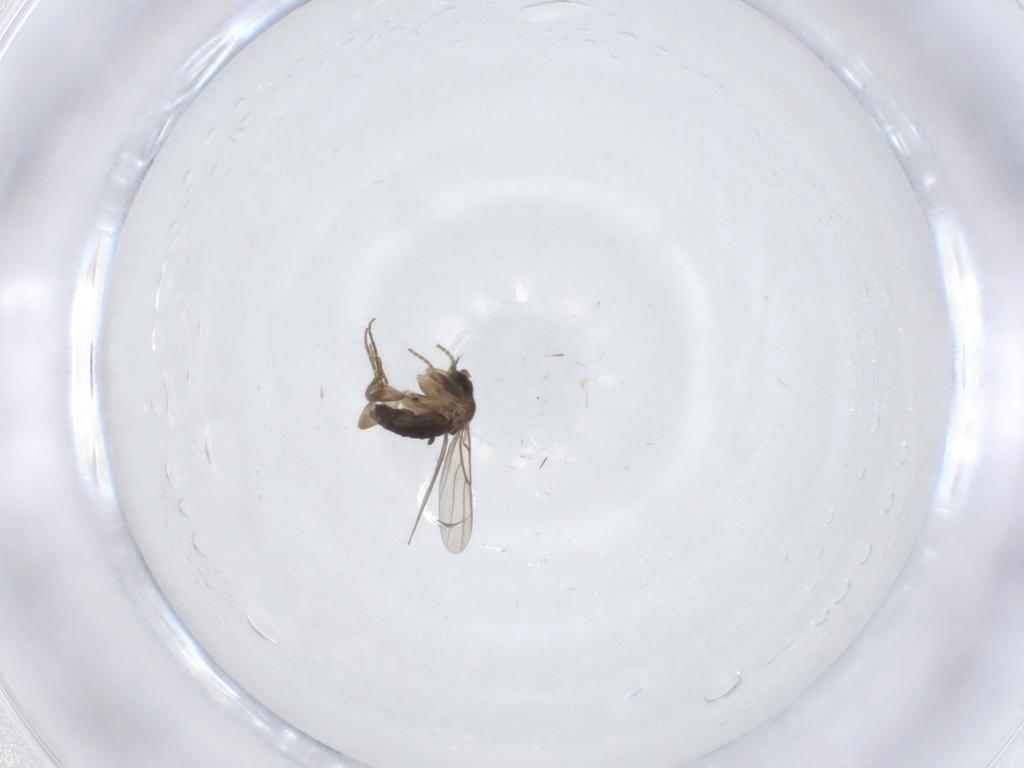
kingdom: Animalia
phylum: Arthropoda
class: Insecta
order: Diptera
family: Phoridae
